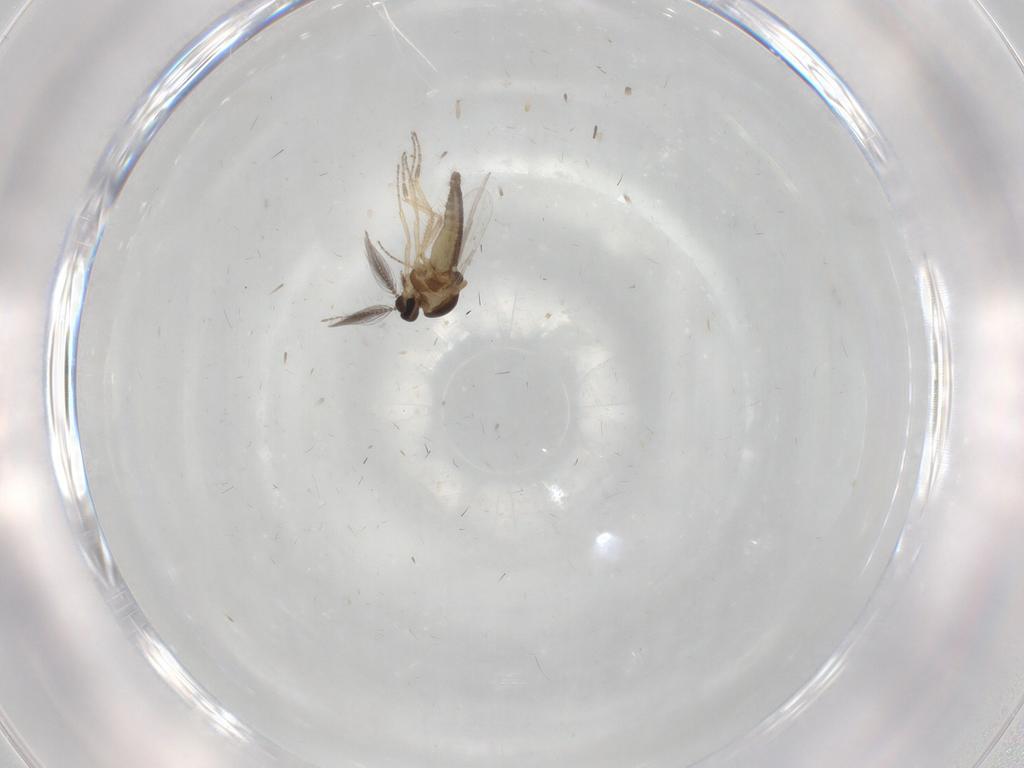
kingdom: Animalia
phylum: Arthropoda
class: Insecta
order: Diptera
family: Ceratopogonidae
